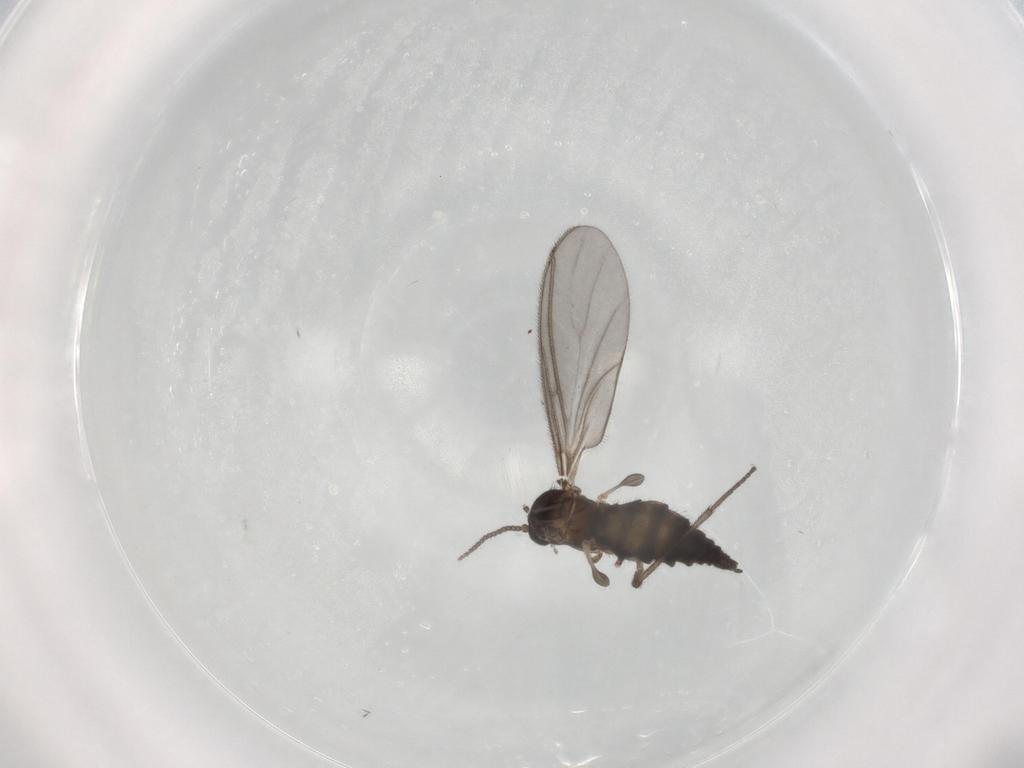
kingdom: Animalia
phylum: Arthropoda
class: Insecta
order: Diptera
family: Sciaridae
